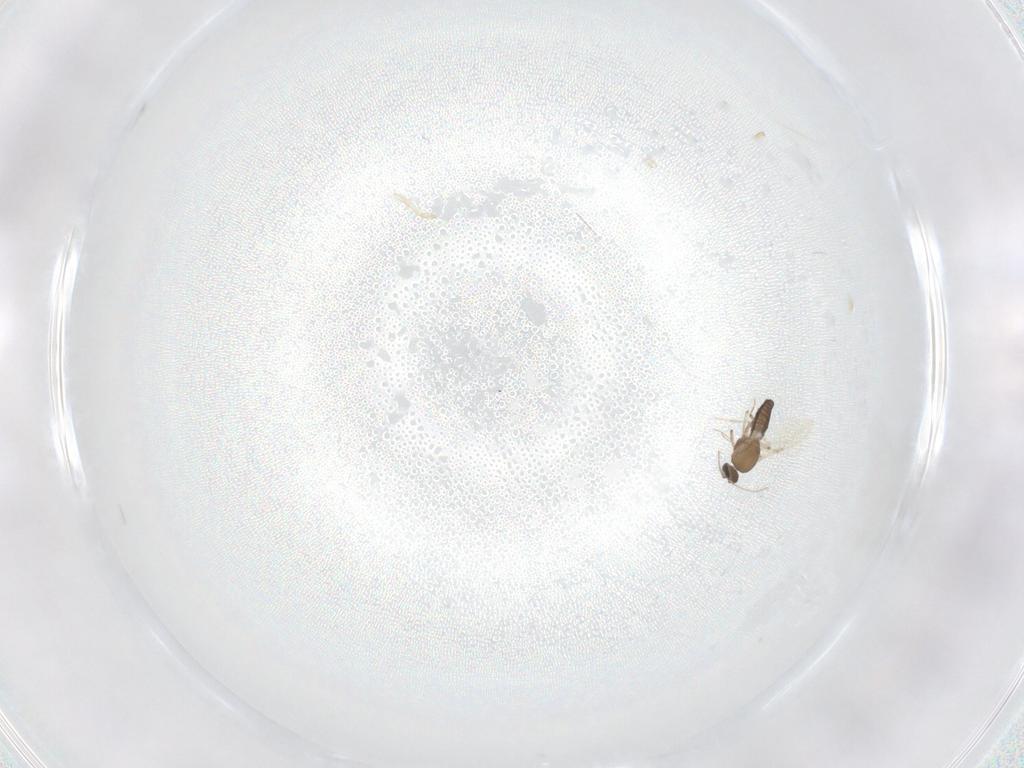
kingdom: Animalia
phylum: Arthropoda
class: Insecta
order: Diptera
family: Ceratopogonidae
